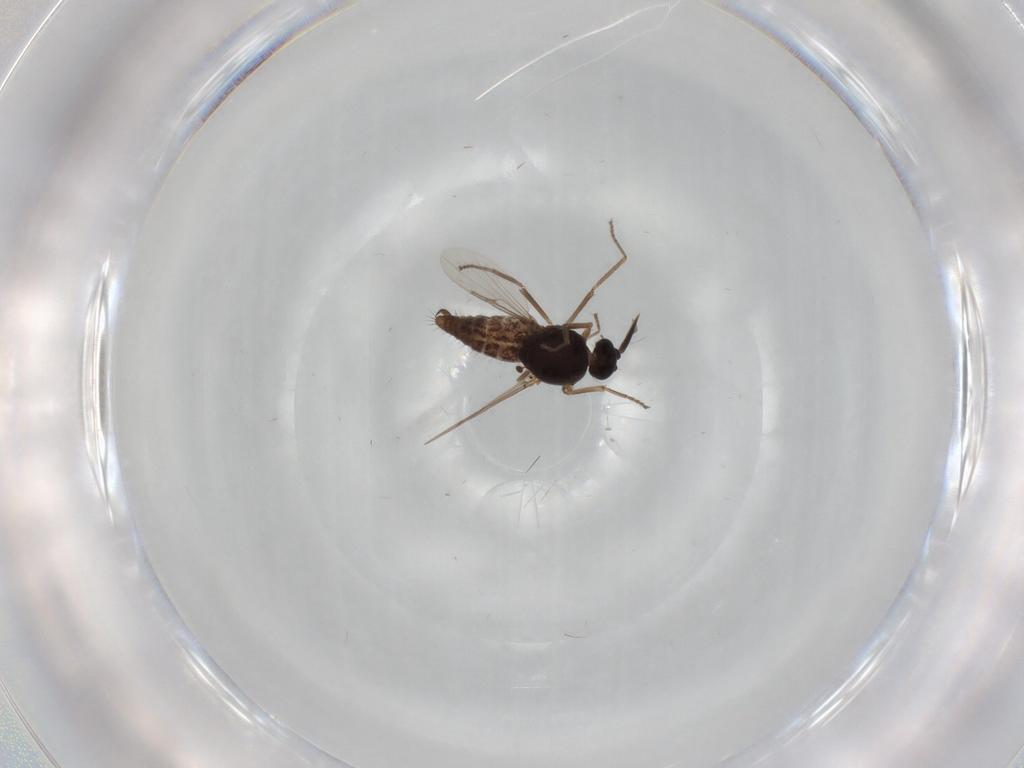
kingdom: Animalia
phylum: Arthropoda
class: Insecta
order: Diptera
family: Ceratopogonidae
